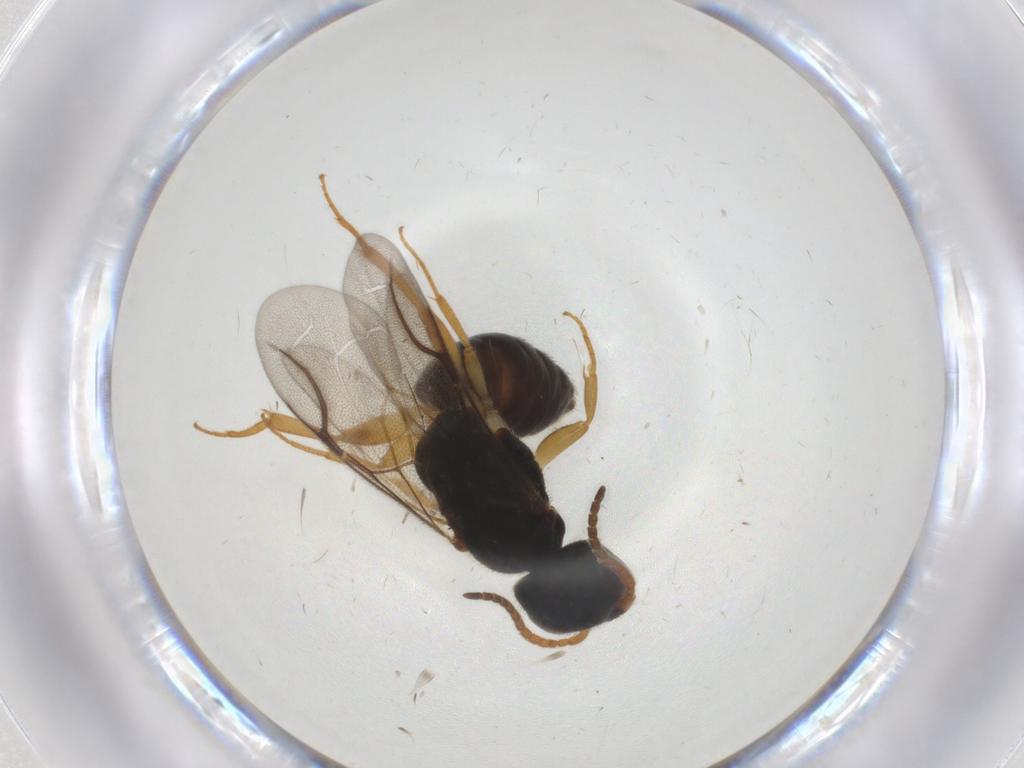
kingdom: Animalia
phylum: Arthropoda
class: Insecta
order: Hymenoptera
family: Bethylidae
